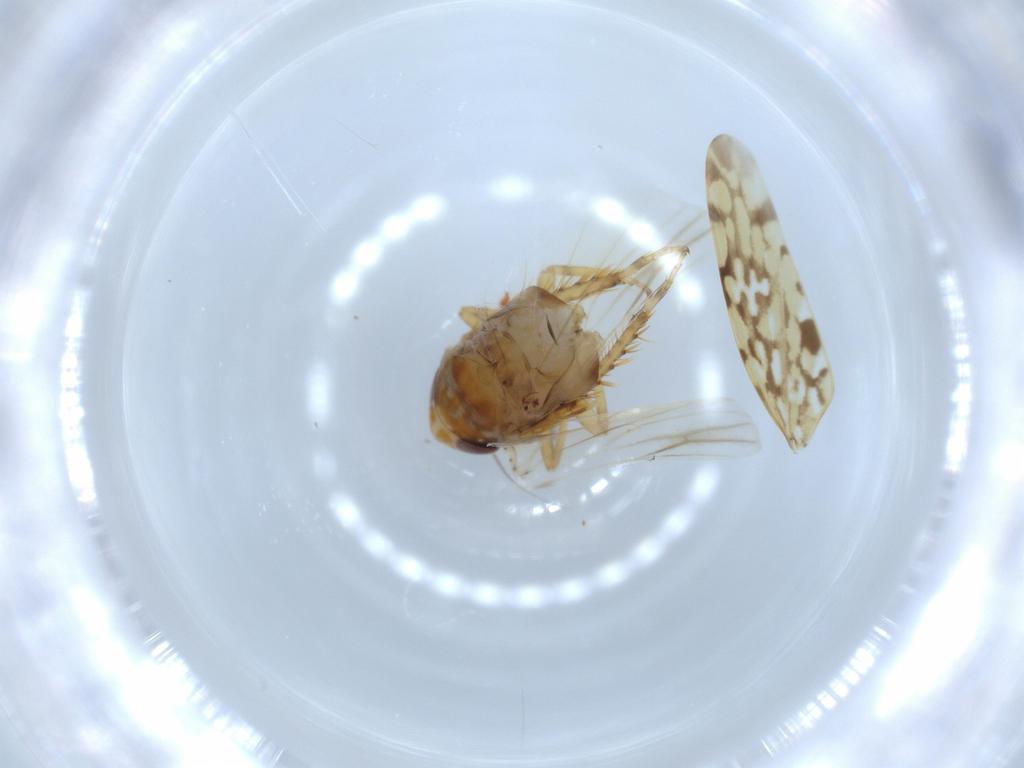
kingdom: Animalia
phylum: Arthropoda
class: Insecta
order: Hemiptera
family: Cicadellidae
